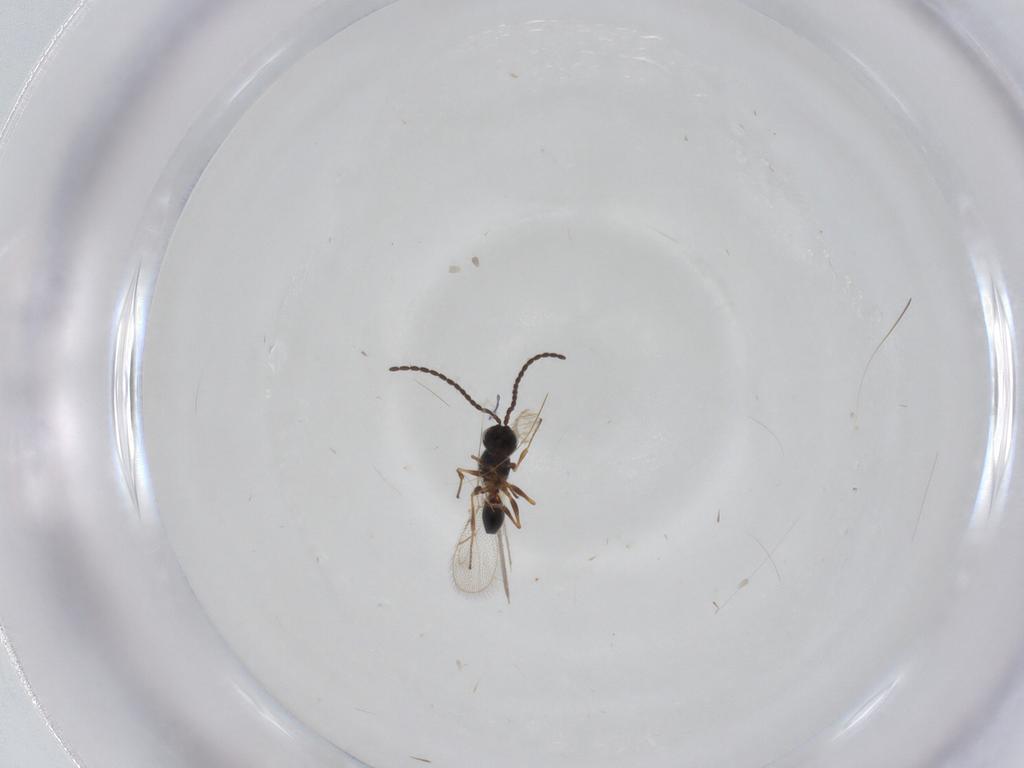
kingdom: Animalia
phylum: Arthropoda
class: Insecta
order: Hymenoptera
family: Figitidae
